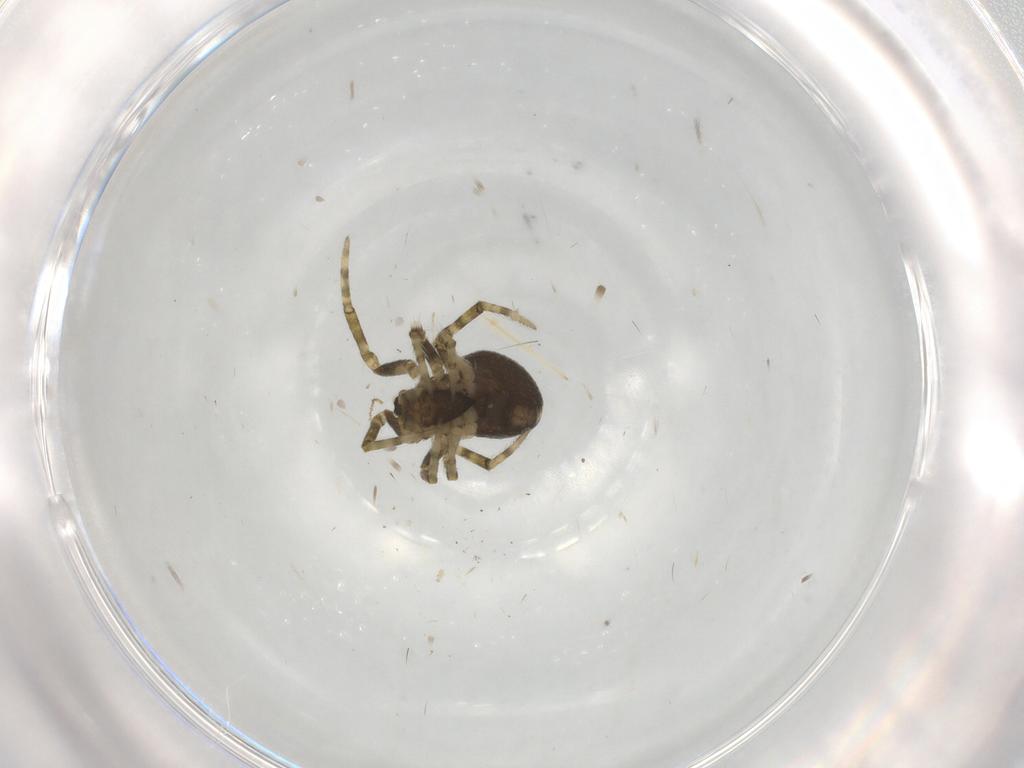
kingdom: Animalia
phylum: Arthropoda
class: Arachnida
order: Araneae
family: Theridiidae
